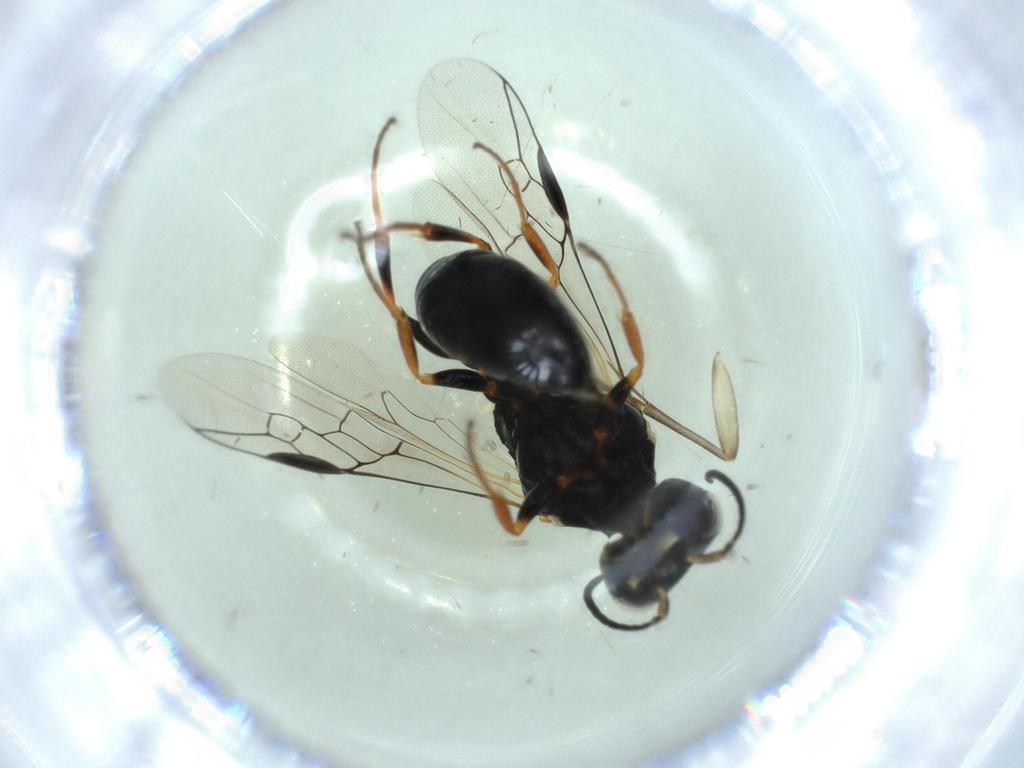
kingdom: Animalia
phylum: Arthropoda
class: Insecta
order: Hymenoptera
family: Crabronidae
